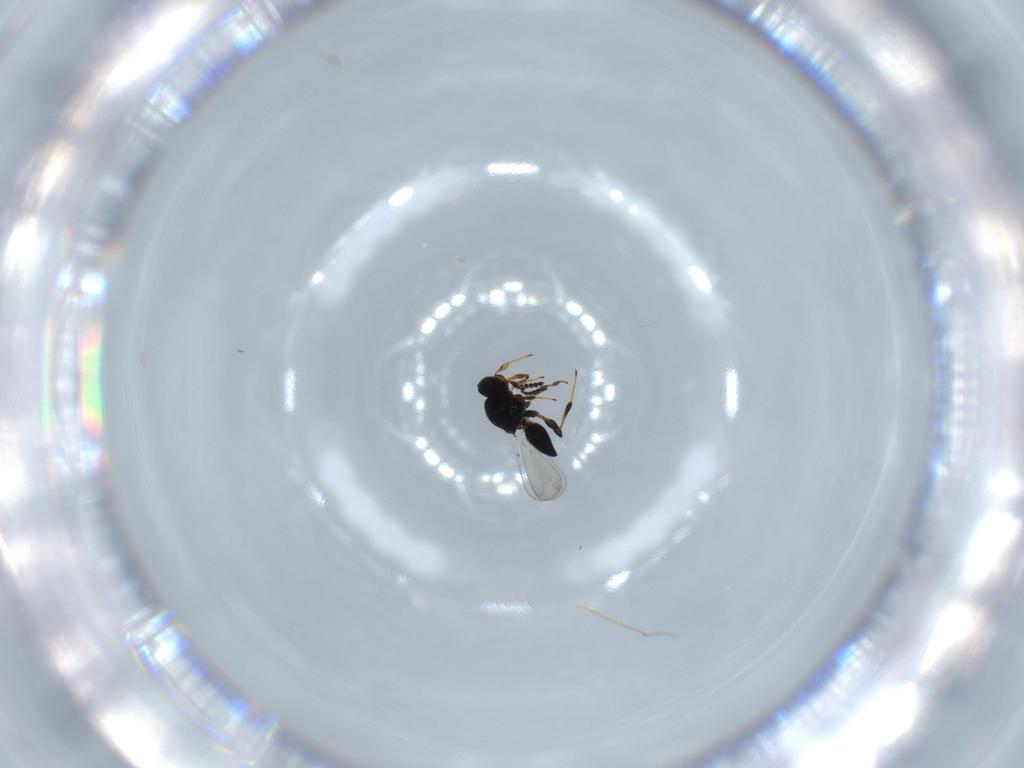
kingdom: Animalia
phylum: Arthropoda
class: Insecta
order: Hymenoptera
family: Platygastridae
